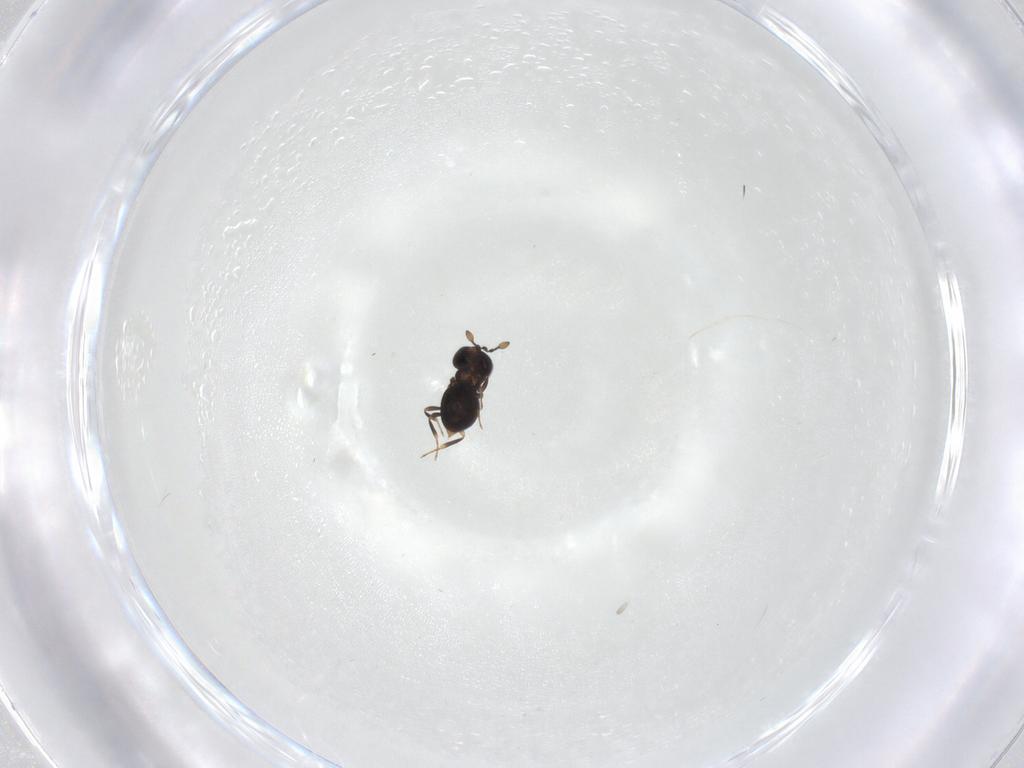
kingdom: Animalia
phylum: Arthropoda
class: Insecta
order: Hymenoptera
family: Scelionidae
